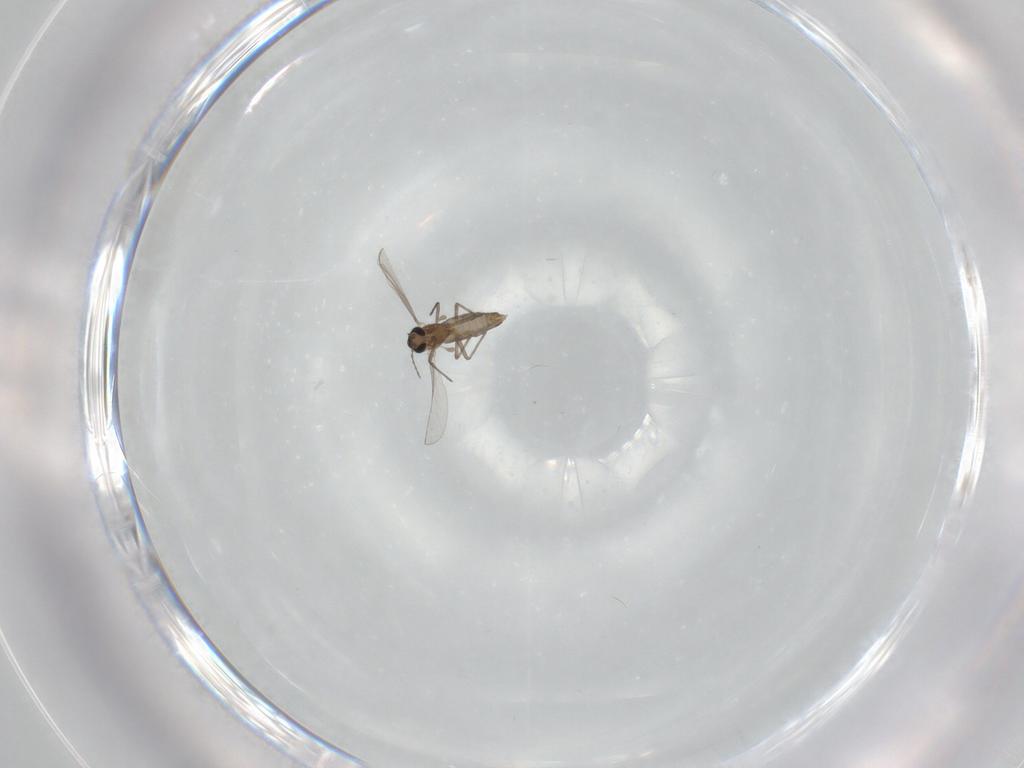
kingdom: Animalia
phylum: Arthropoda
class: Insecta
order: Diptera
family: Chironomidae
